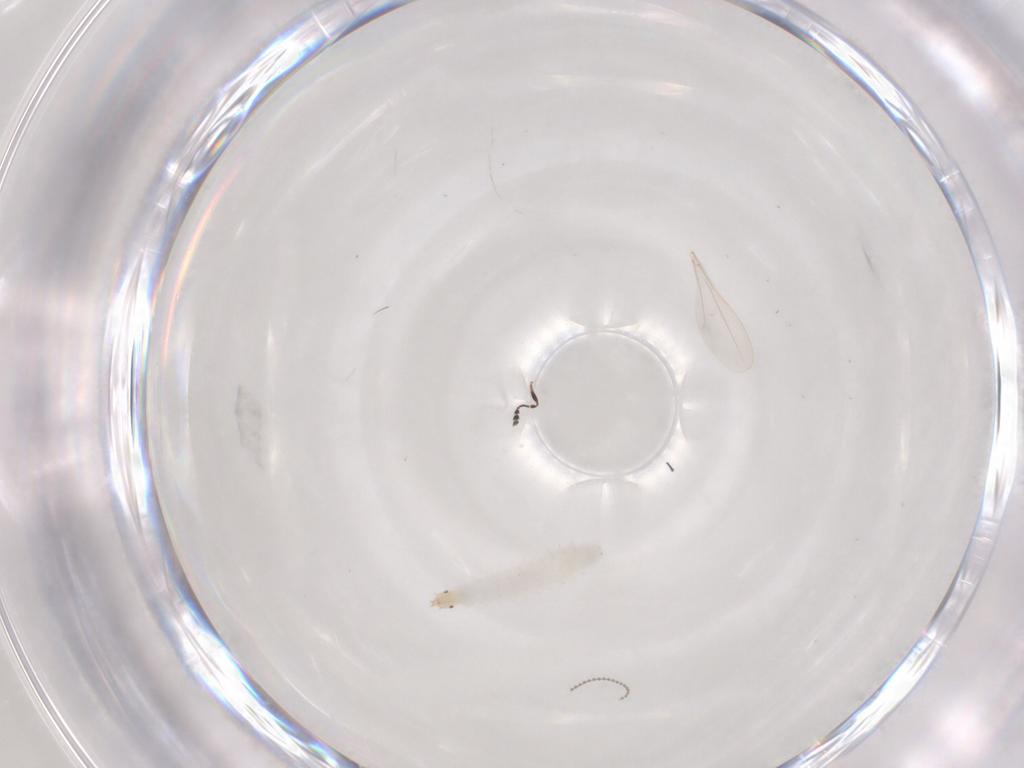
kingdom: Animalia
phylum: Arthropoda
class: Insecta
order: Diptera
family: Cecidomyiidae
